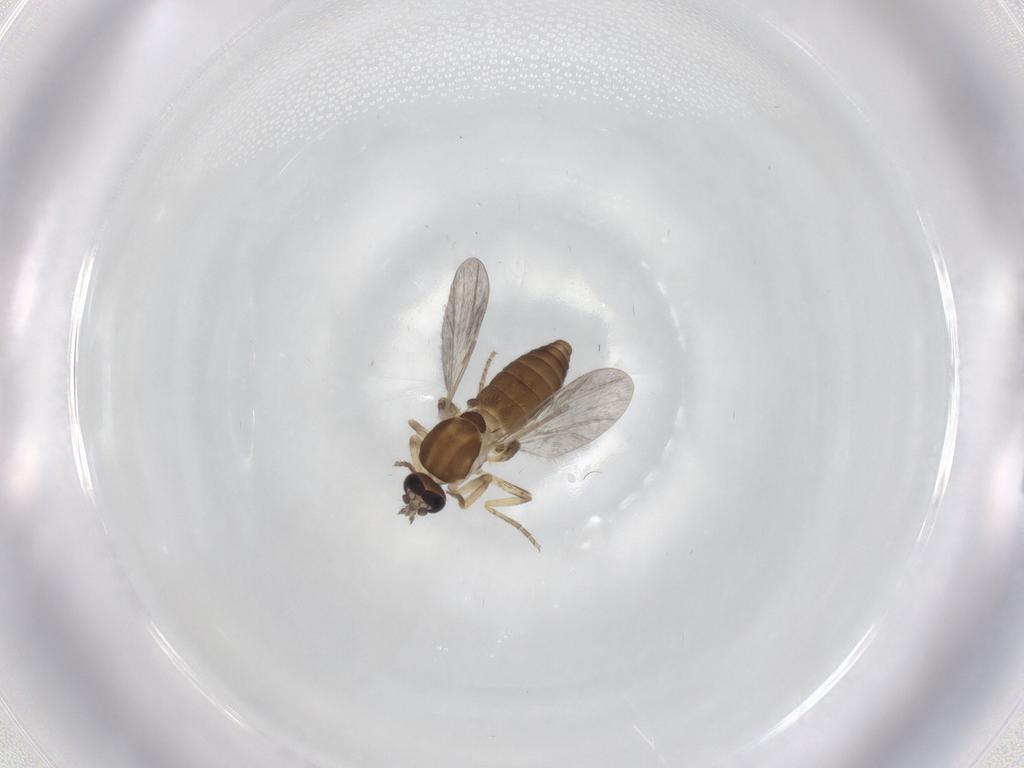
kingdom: Animalia
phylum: Arthropoda
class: Insecta
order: Diptera
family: Ceratopogonidae
